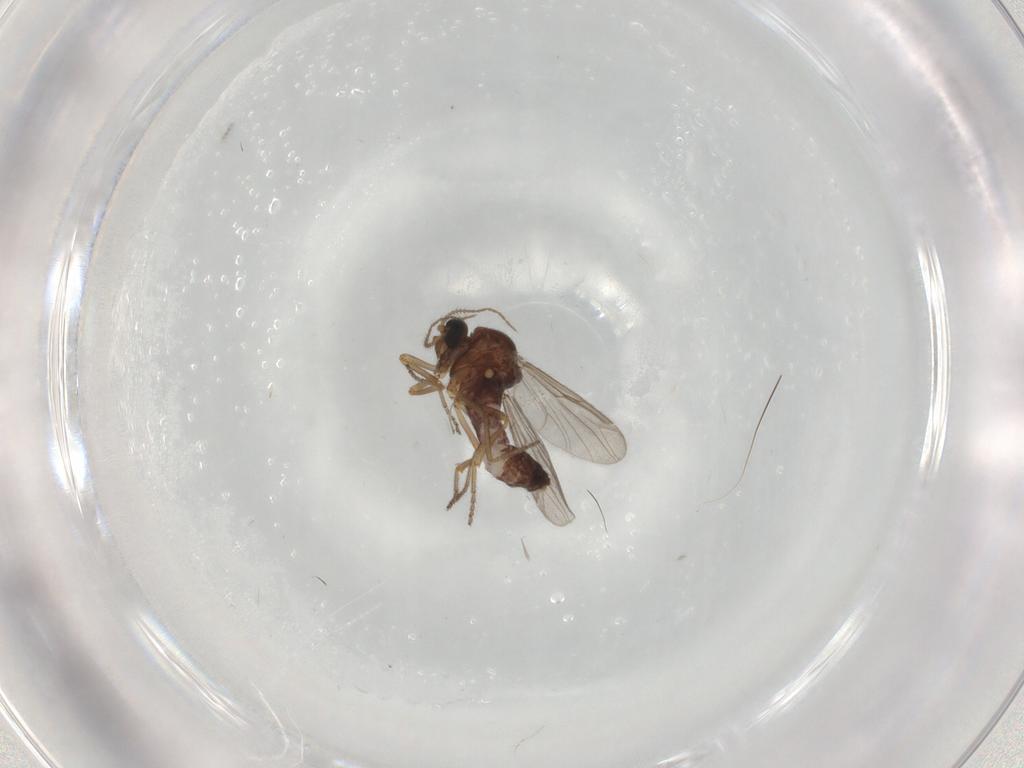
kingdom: Animalia
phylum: Arthropoda
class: Insecta
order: Diptera
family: Ceratopogonidae
